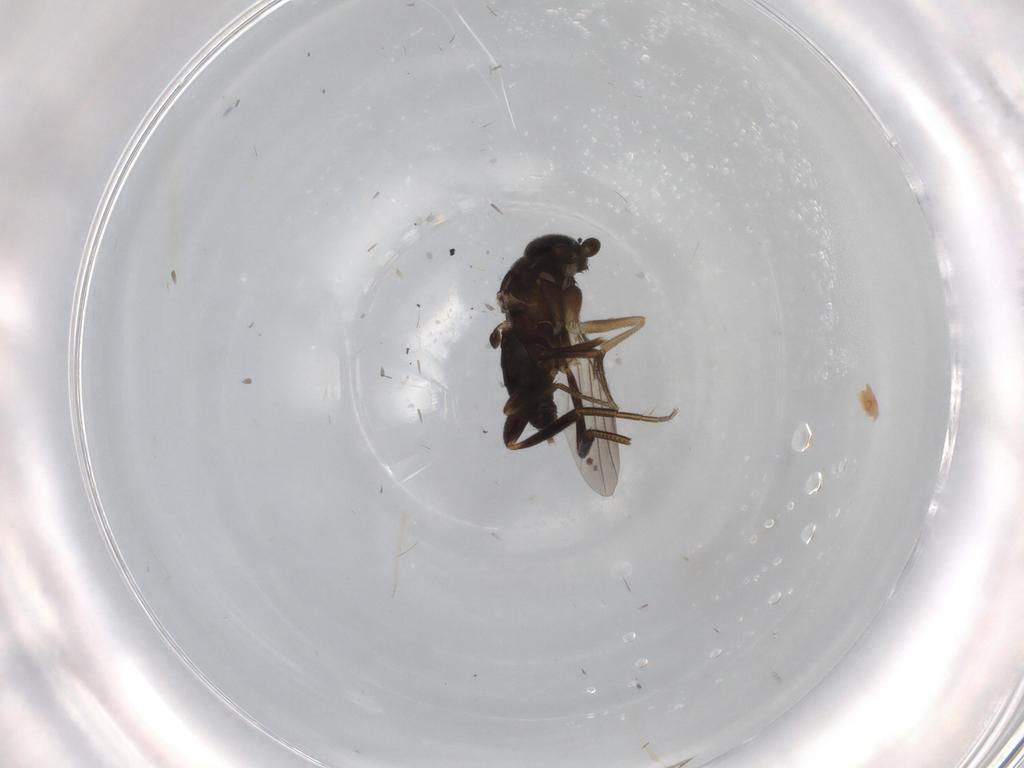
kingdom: Animalia
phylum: Arthropoda
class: Insecta
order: Diptera
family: Phoridae
